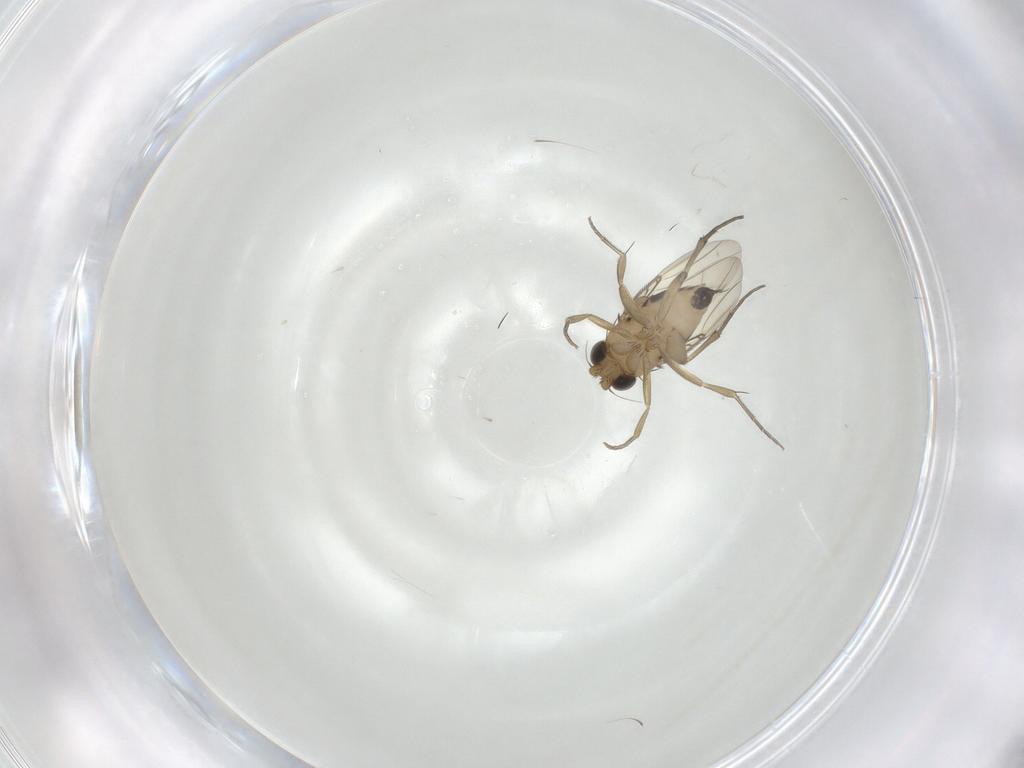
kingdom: Animalia
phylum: Arthropoda
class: Insecta
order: Diptera
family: Phoridae
